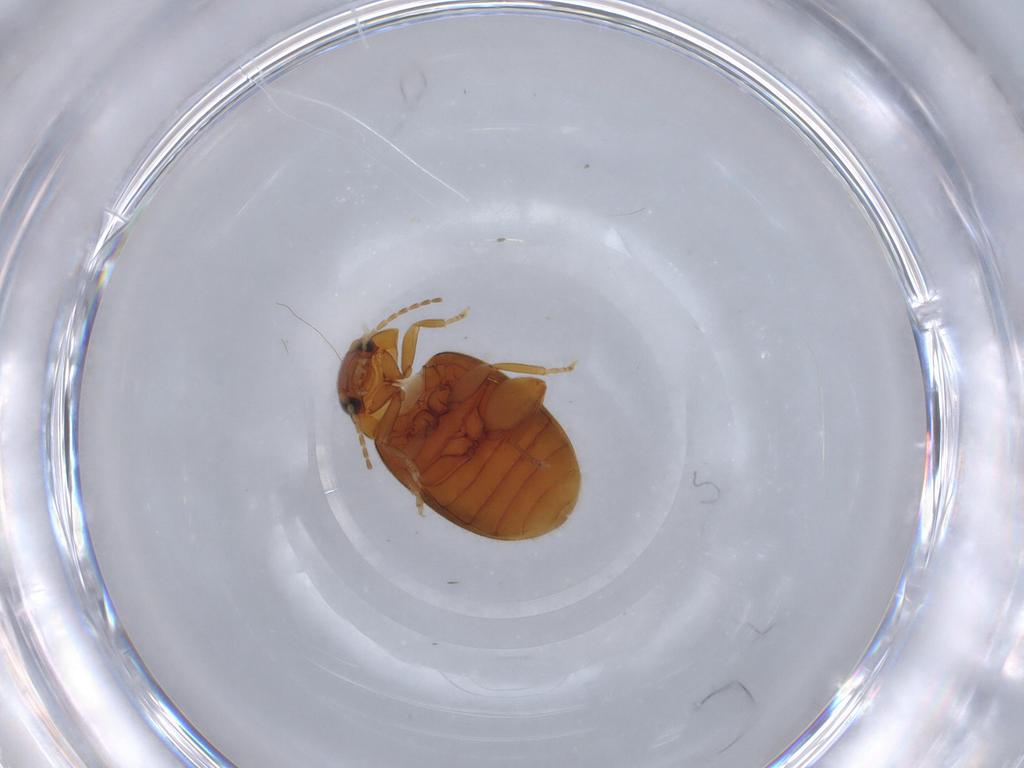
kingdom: Animalia
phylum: Arthropoda
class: Insecta
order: Coleoptera
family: Scirtidae
